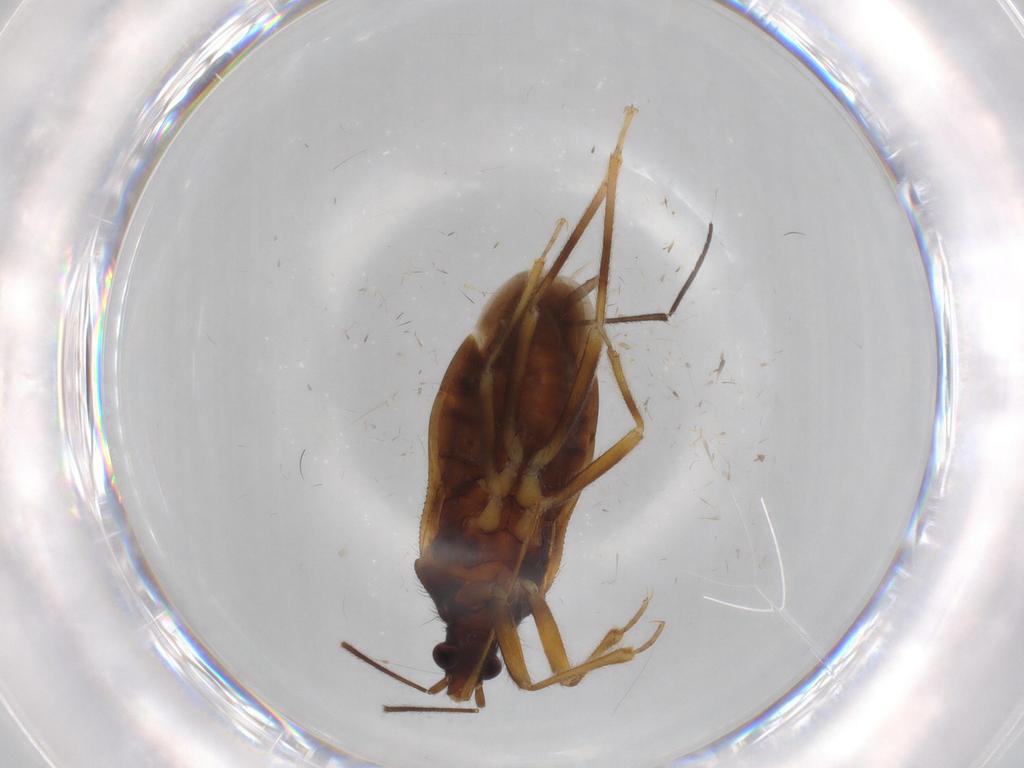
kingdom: Animalia
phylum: Arthropoda
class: Insecta
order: Hemiptera
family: Anthocoridae
